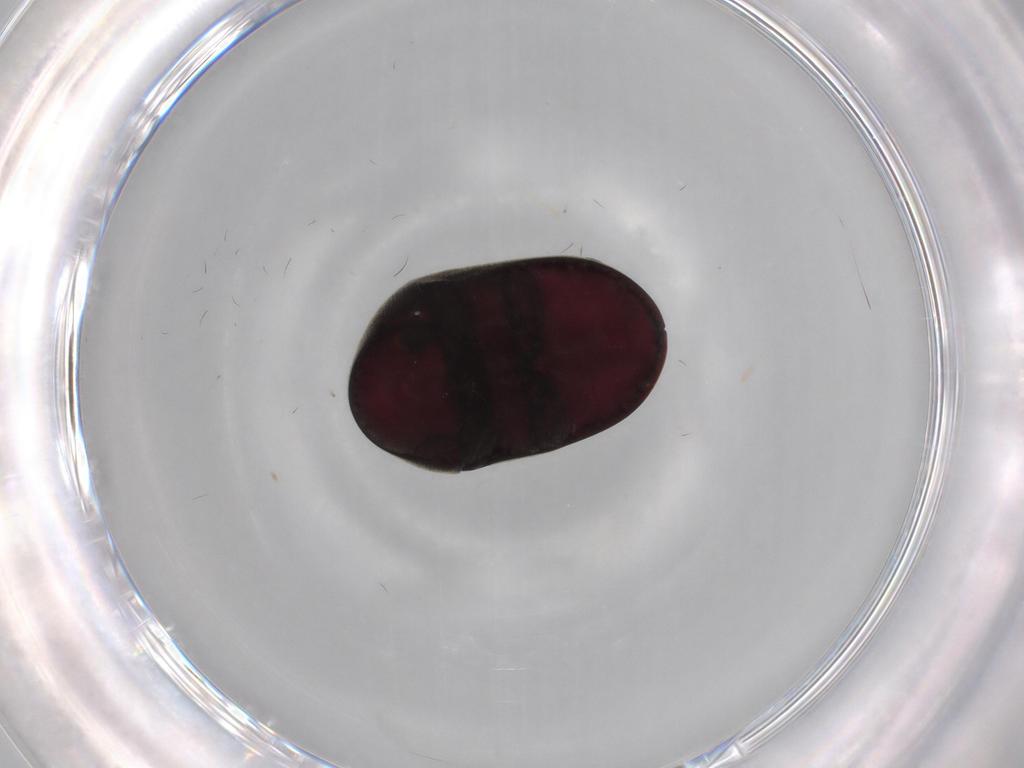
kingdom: Animalia
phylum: Arthropoda
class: Insecta
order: Coleoptera
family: Ptinidae
